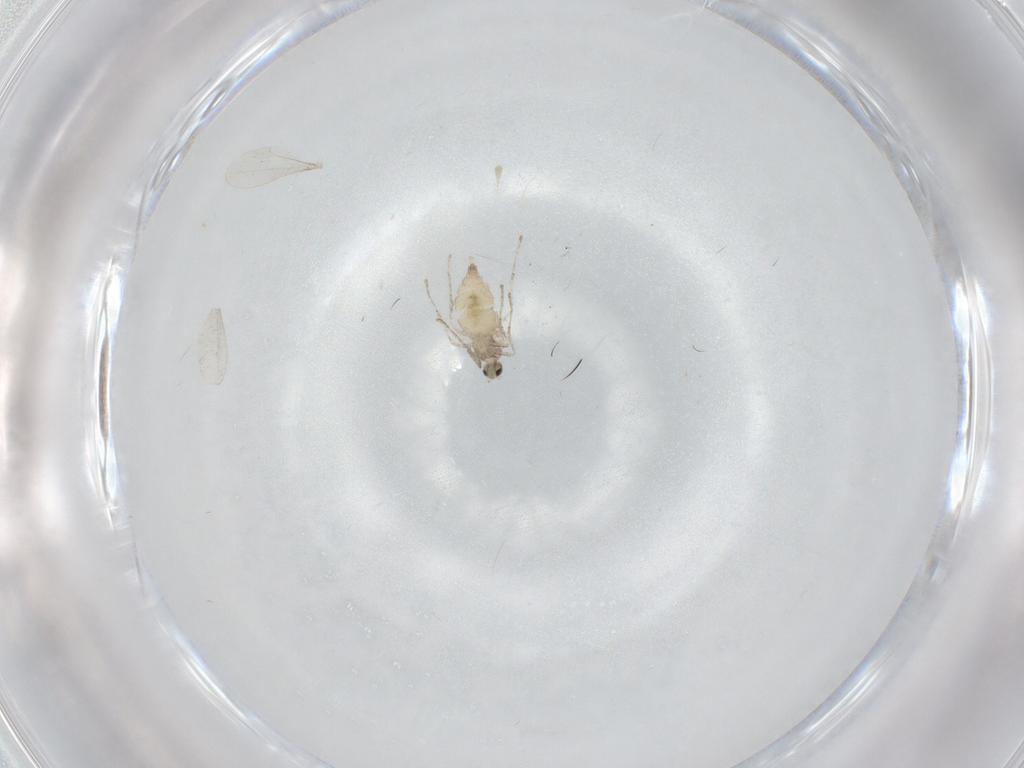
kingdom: Animalia
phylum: Arthropoda
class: Insecta
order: Diptera
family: Cecidomyiidae
